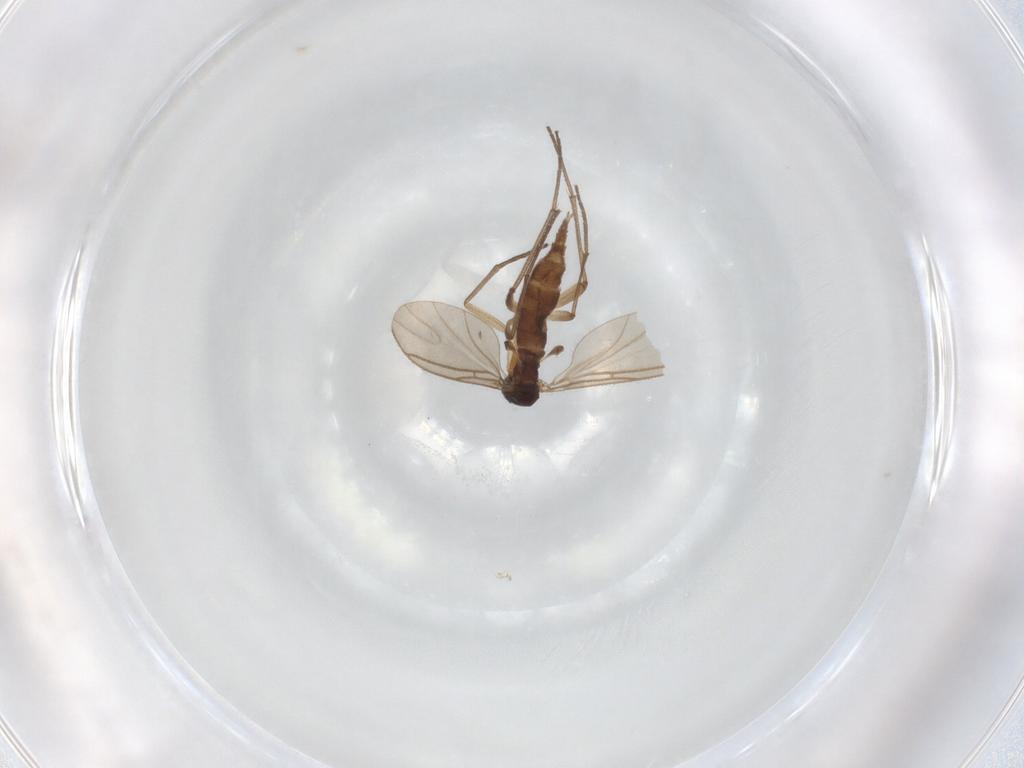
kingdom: Animalia
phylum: Arthropoda
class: Insecta
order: Diptera
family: Sciaridae
